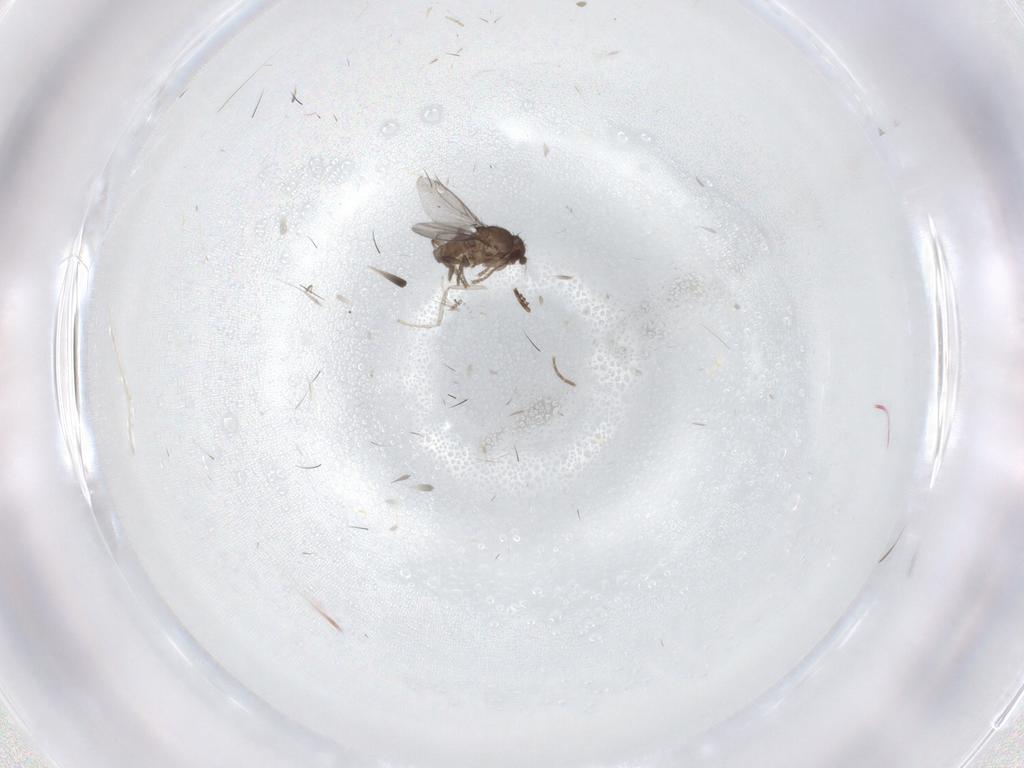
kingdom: Animalia
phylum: Arthropoda
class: Insecta
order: Diptera
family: Sphaeroceridae
